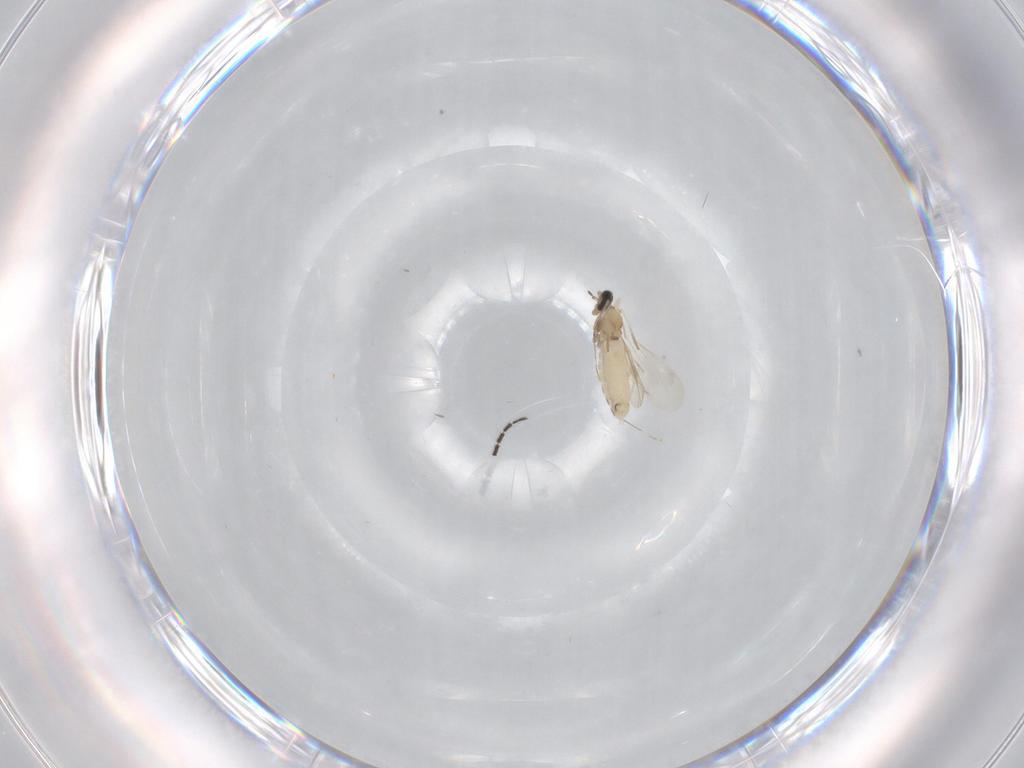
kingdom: Animalia
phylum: Arthropoda
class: Insecta
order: Diptera
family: Cecidomyiidae
